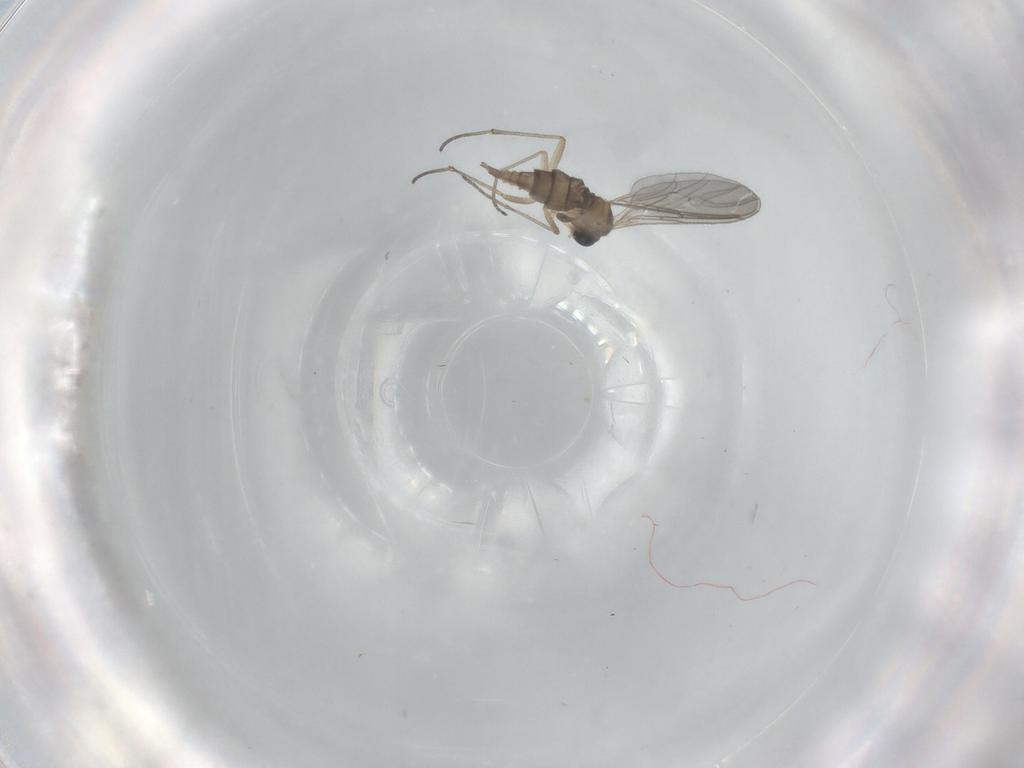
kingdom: Animalia
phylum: Arthropoda
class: Insecta
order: Diptera
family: Sciaridae
